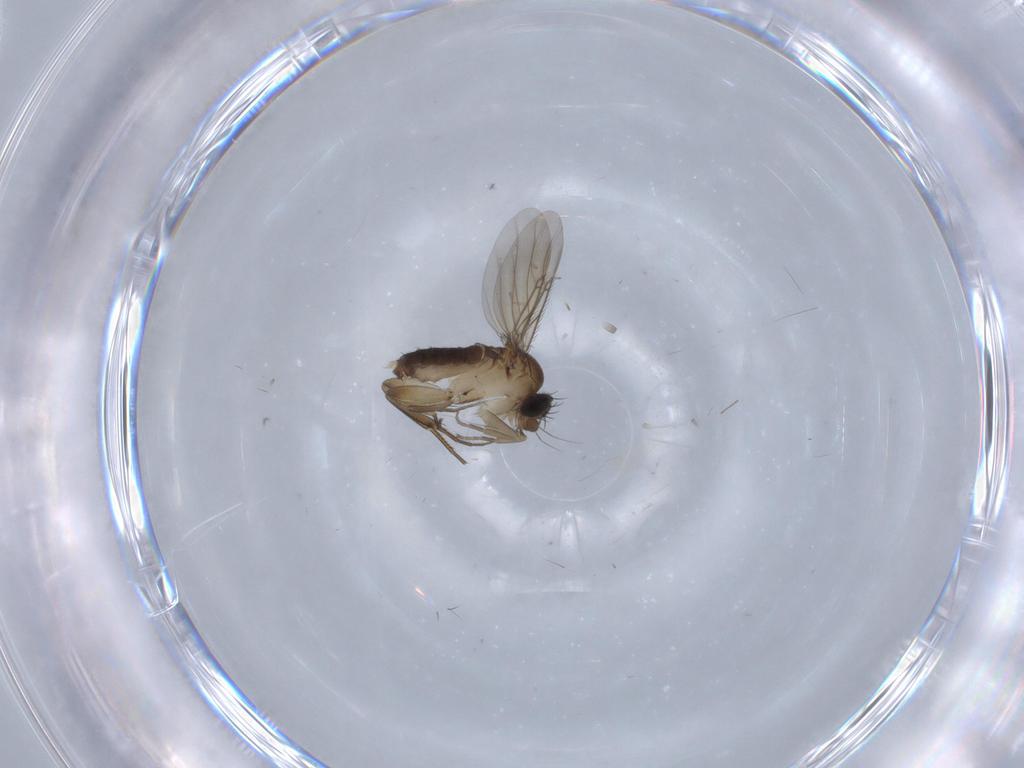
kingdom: Animalia
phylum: Arthropoda
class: Insecta
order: Diptera
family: Phoridae
